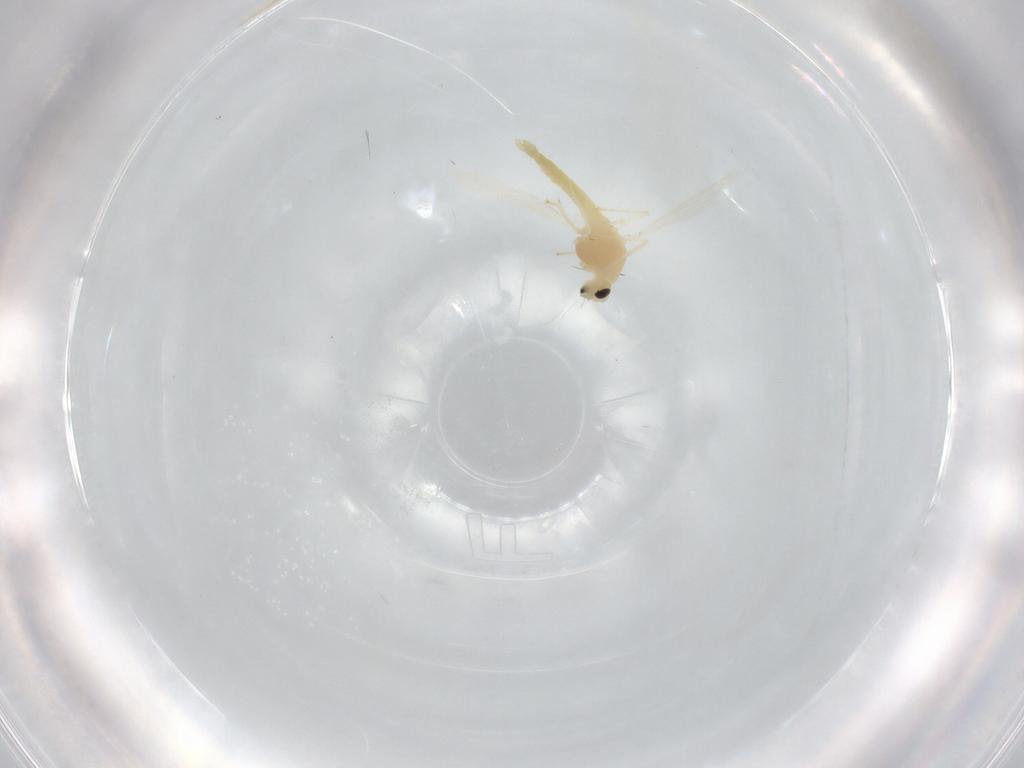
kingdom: Animalia
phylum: Arthropoda
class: Insecta
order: Diptera
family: Chironomidae
